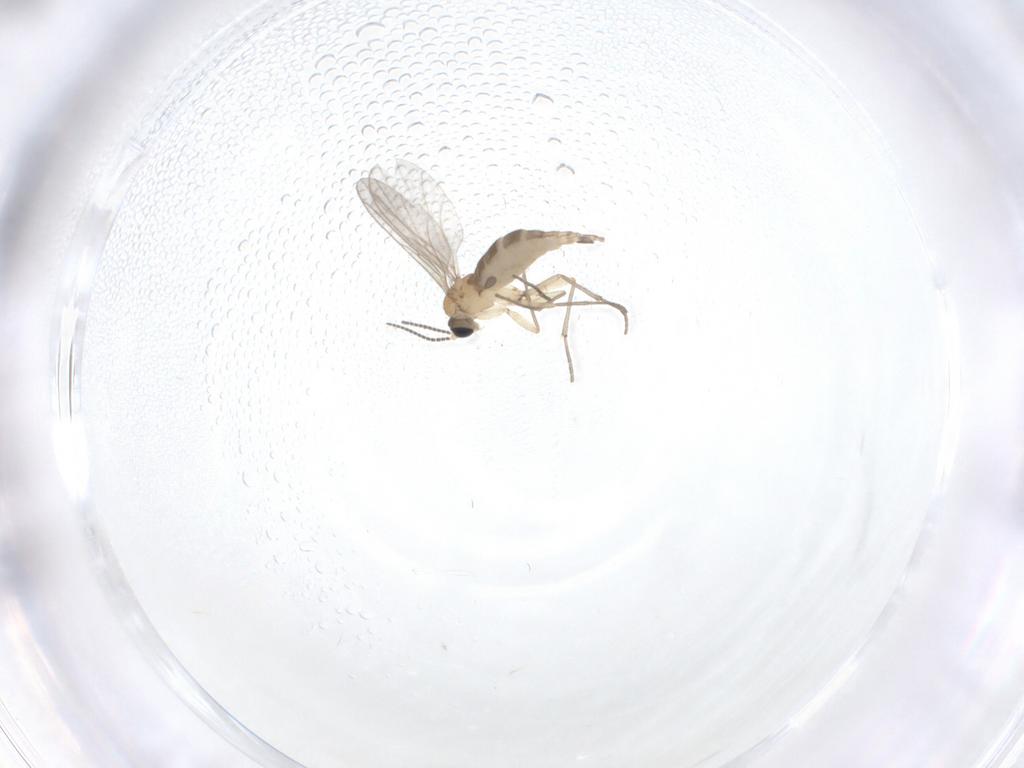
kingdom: Animalia
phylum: Arthropoda
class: Insecta
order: Diptera
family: Sciaridae
